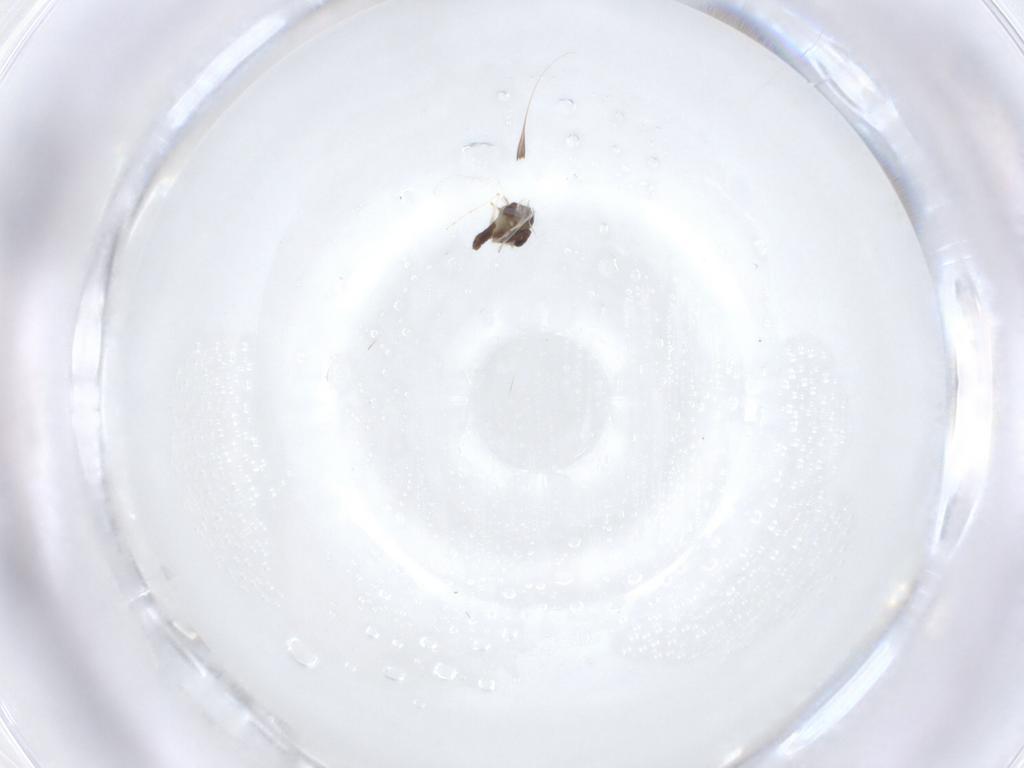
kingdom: Animalia
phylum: Arthropoda
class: Insecta
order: Diptera
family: Chironomidae
